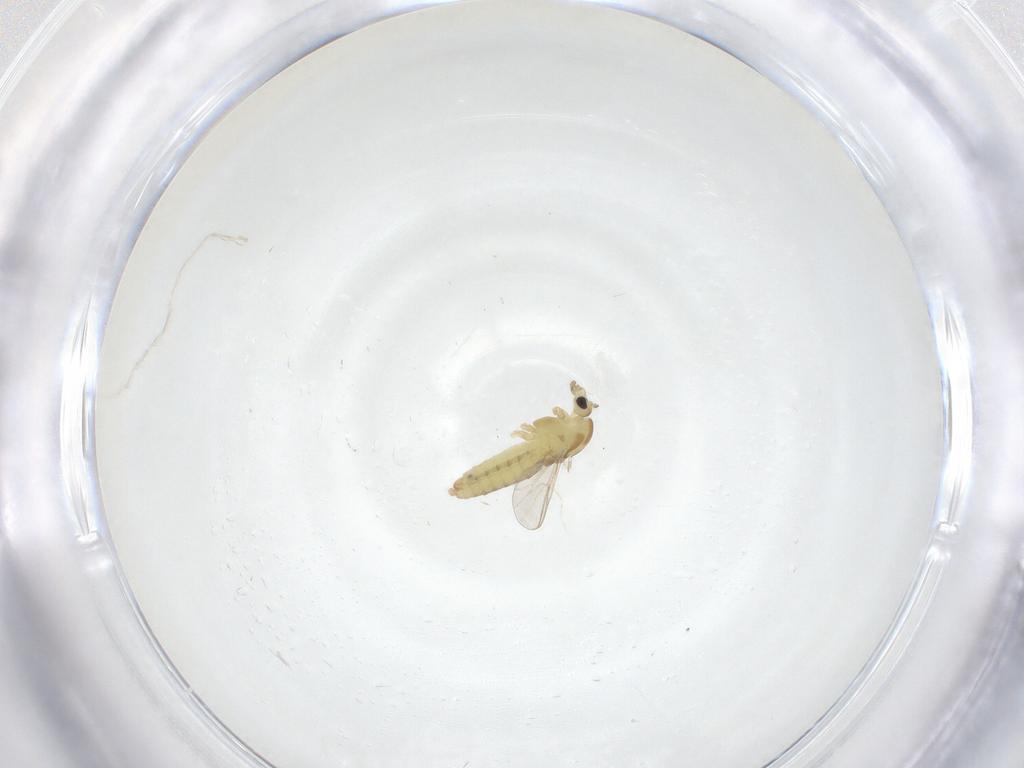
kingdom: Animalia
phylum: Arthropoda
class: Insecta
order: Diptera
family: Chironomidae
